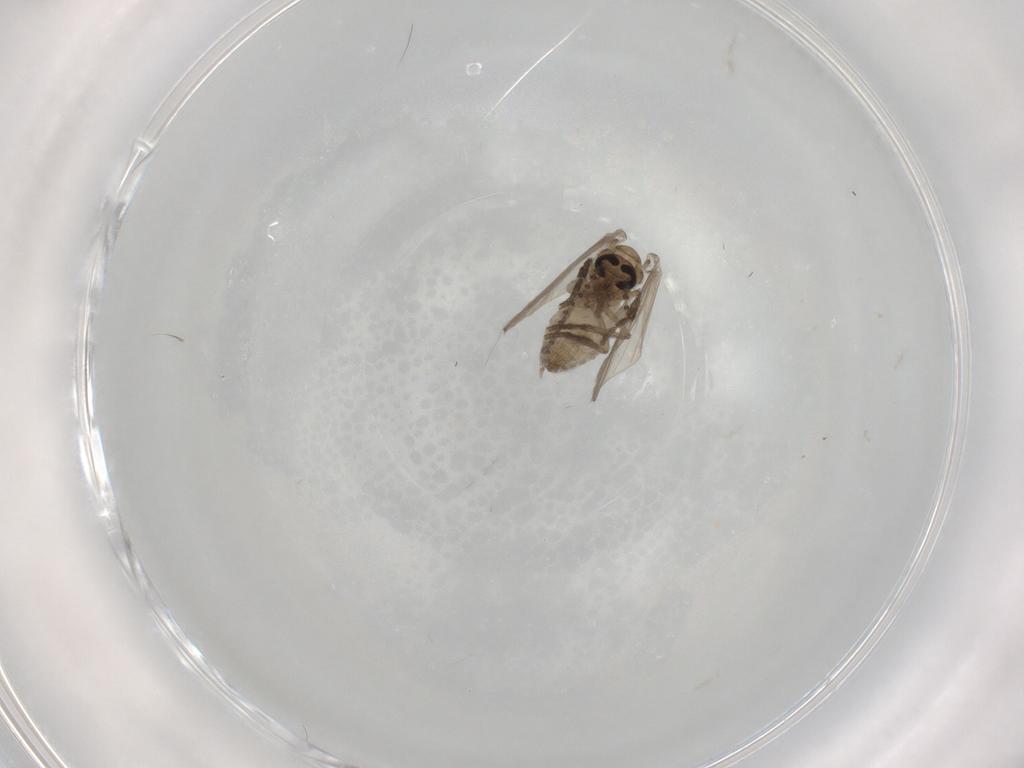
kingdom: Animalia
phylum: Arthropoda
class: Insecta
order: Diptera
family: Psychodidae
